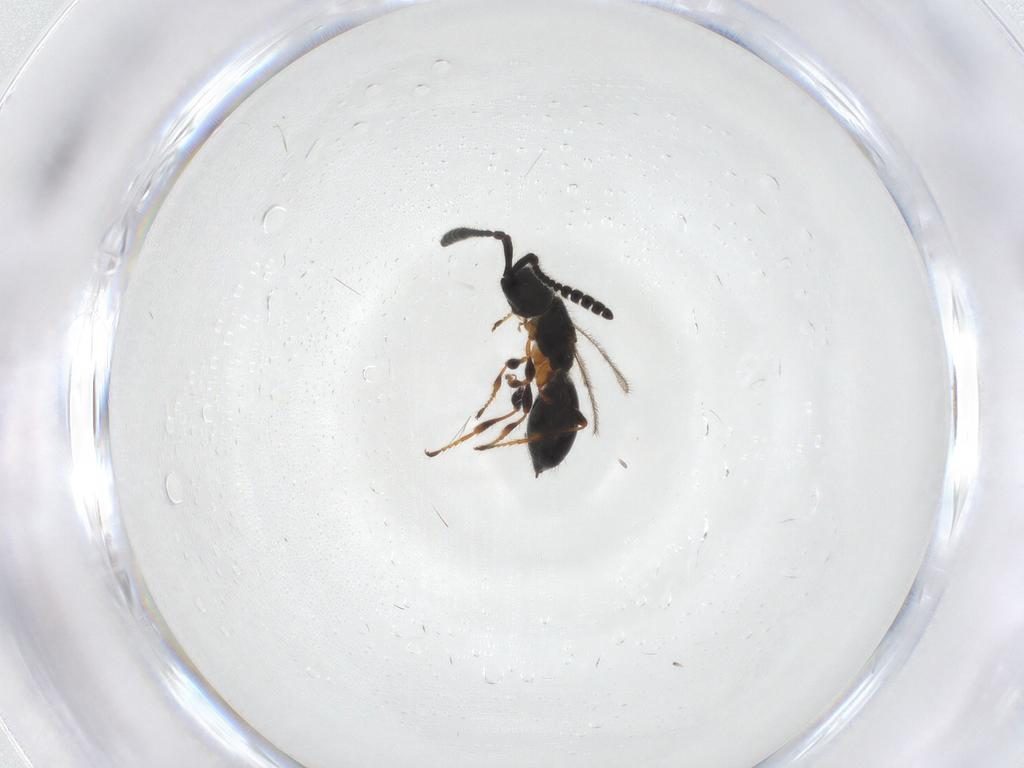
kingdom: Animalia
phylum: Arthropoda
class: Insecta
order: Hymenoptera
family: Diapriidae
